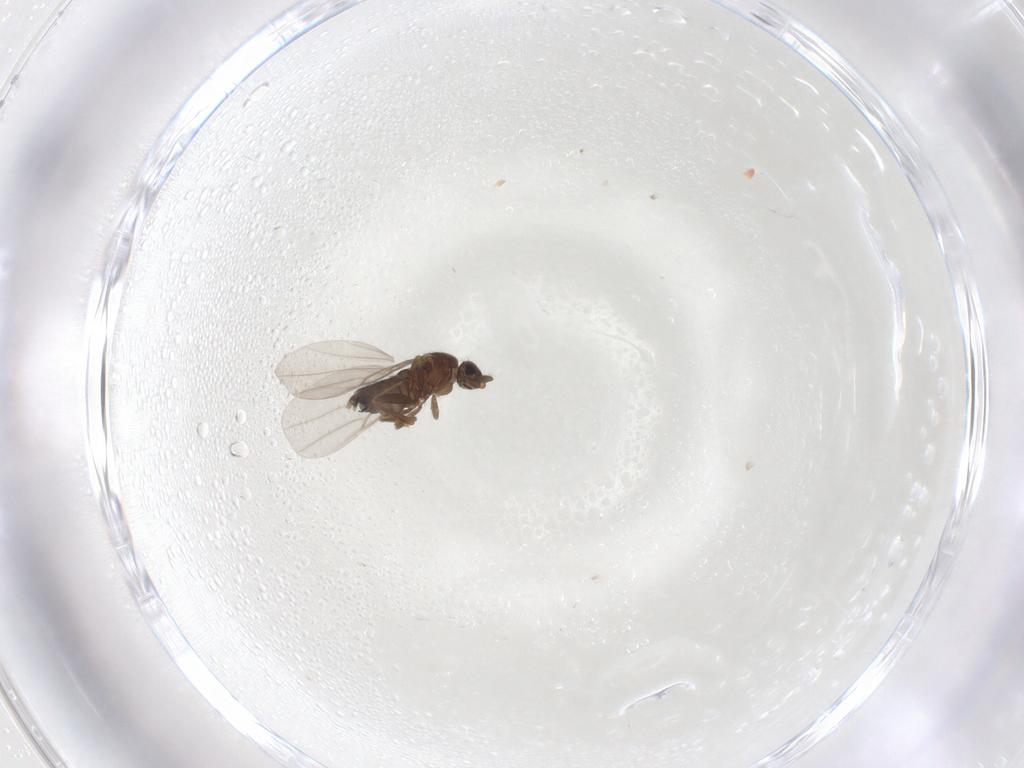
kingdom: Animalia
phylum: Arthropoda
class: Insecta
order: Diptera
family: Phoridae
